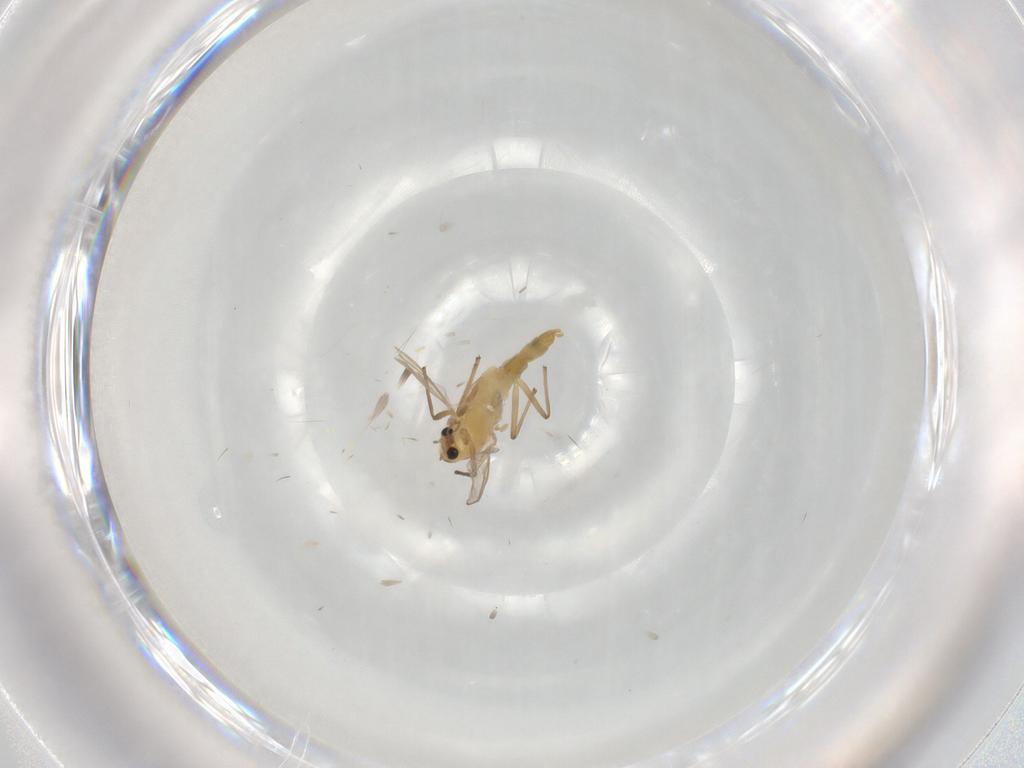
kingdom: Animalia
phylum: Arthropoda
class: Insecta
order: Diptera
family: Chironomidae
